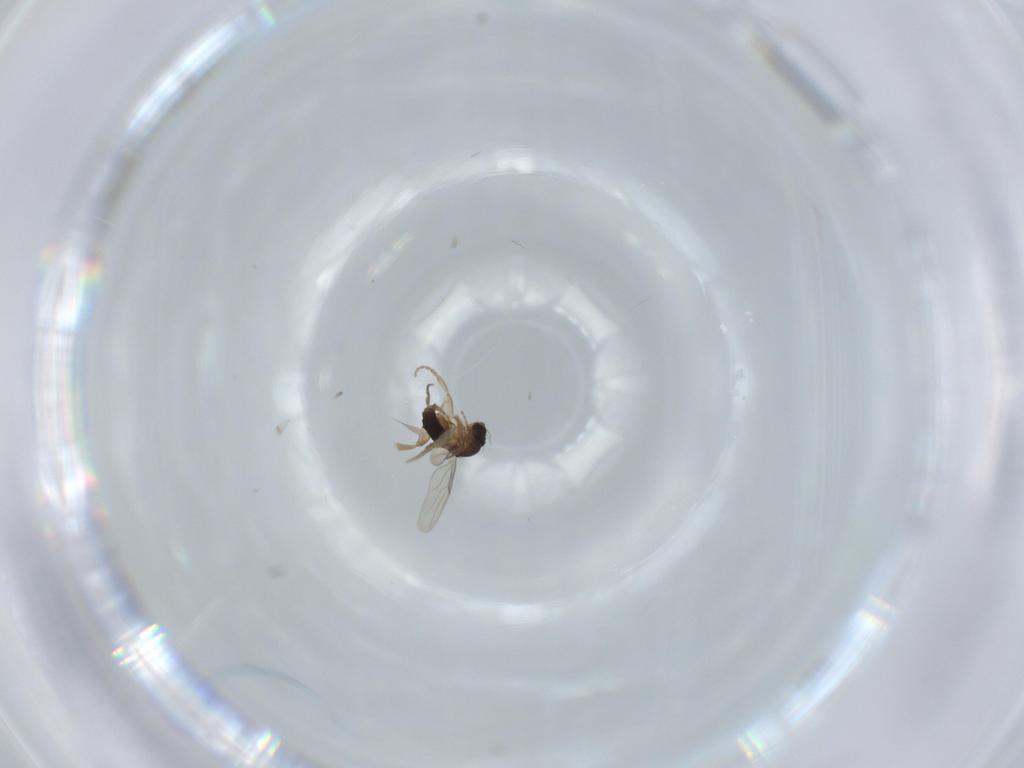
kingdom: Animalia
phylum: Arthropoda
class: Insecta
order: Diptera
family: Phoridae
